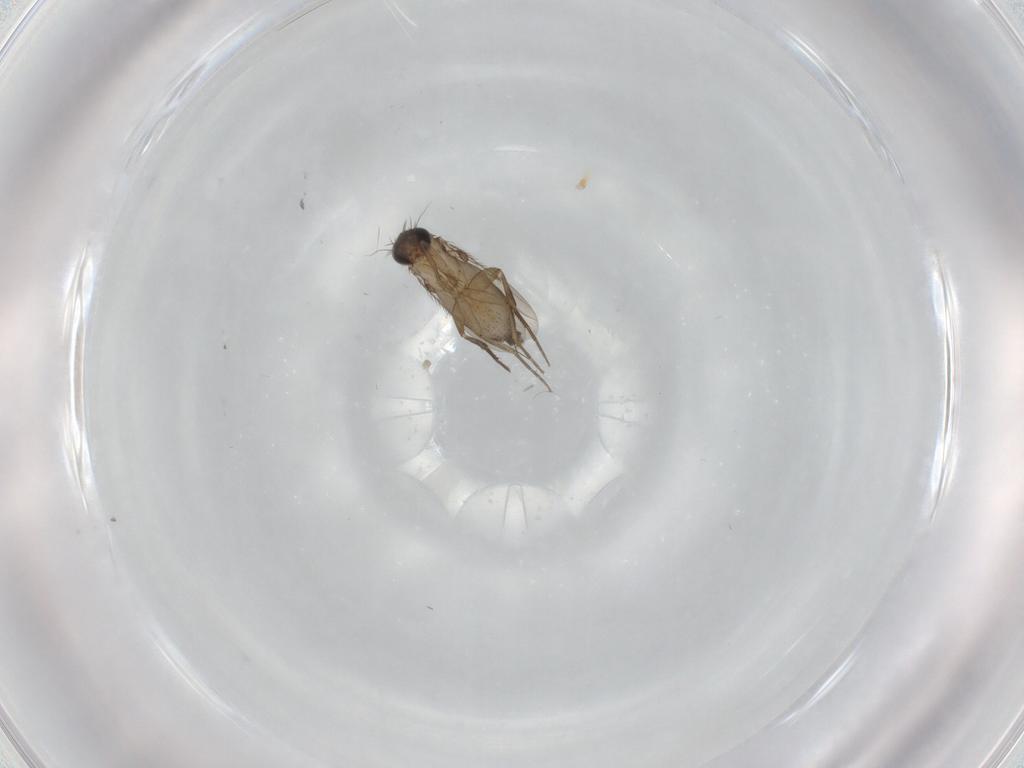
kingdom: Animalia
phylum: Arthropoda
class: Insecta
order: Diptera
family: Phoridae
